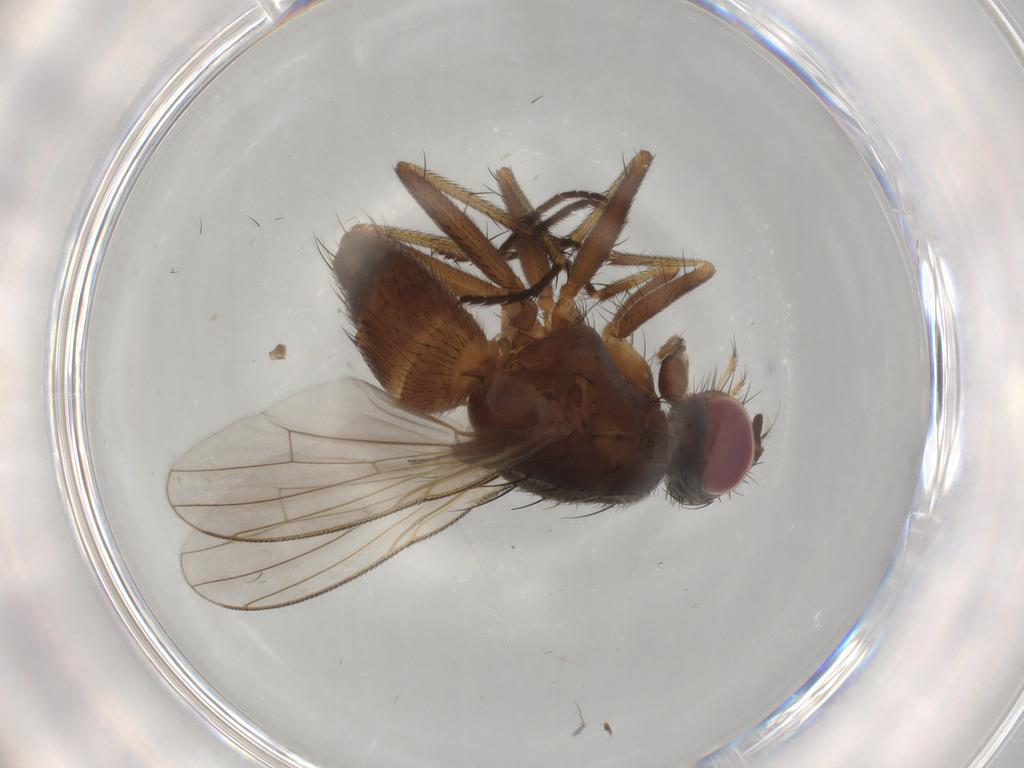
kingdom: Animalia
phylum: Arthropoda
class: Insecta
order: Diptera
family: Muscidae
